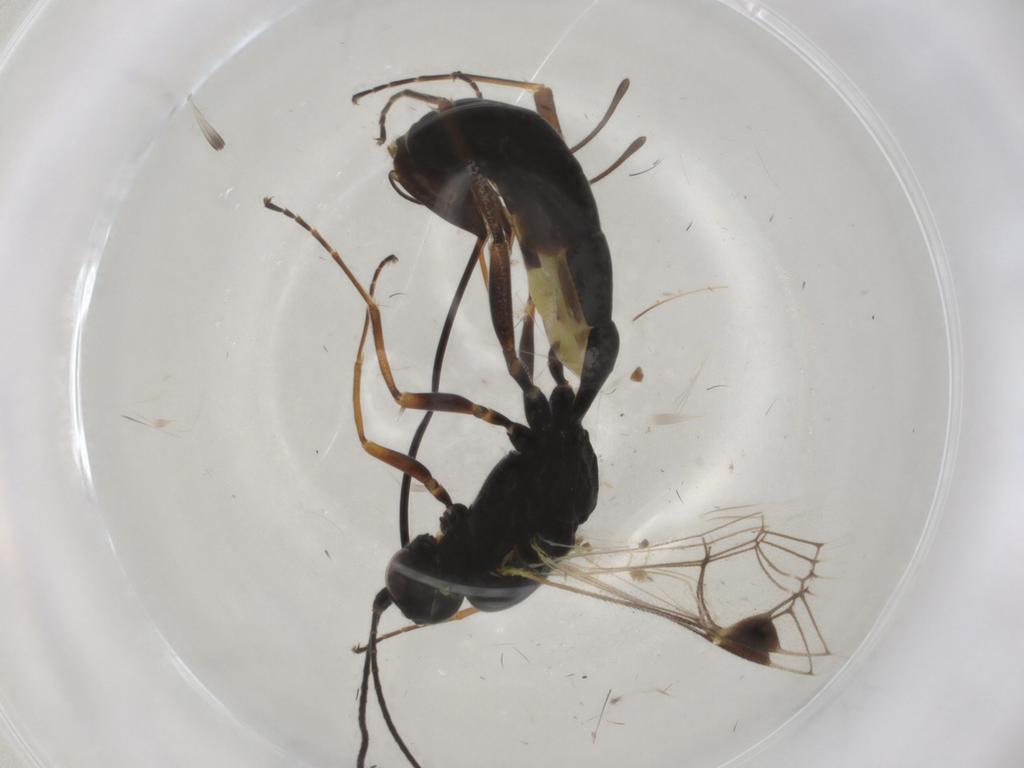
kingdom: Animalia
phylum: Arthropoda
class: Insecta
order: Hymenoptera
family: Ichneumonidae
